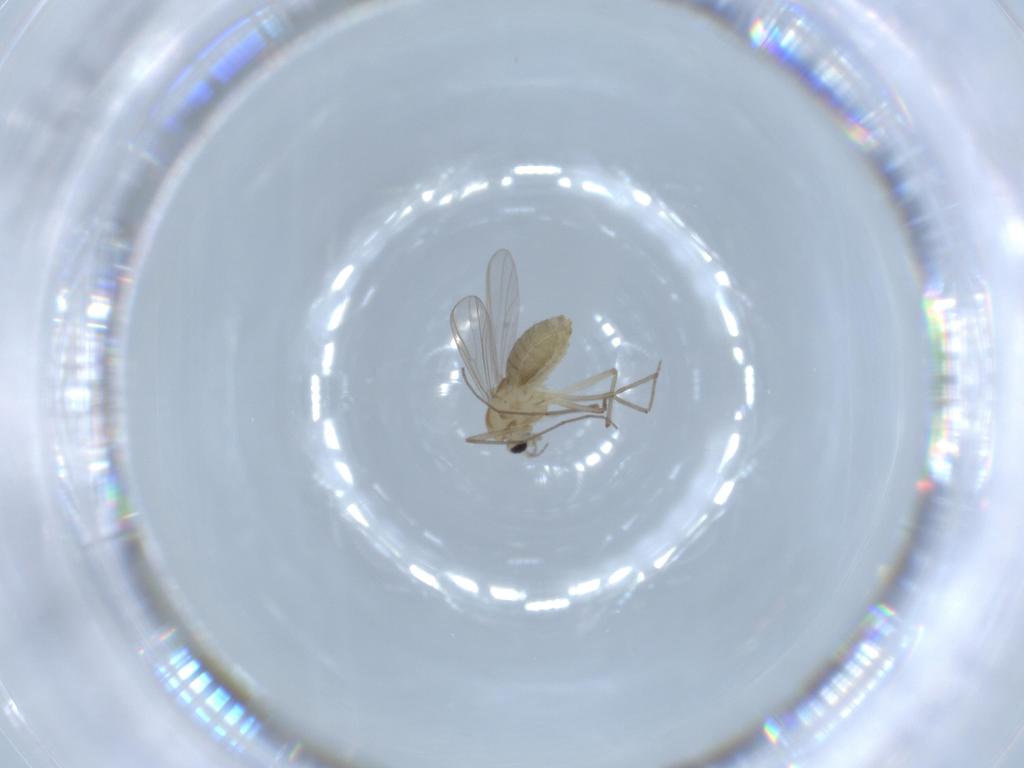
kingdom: Animalia
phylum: Arthropoda
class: Insecta
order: Diptera
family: Chironomidae
